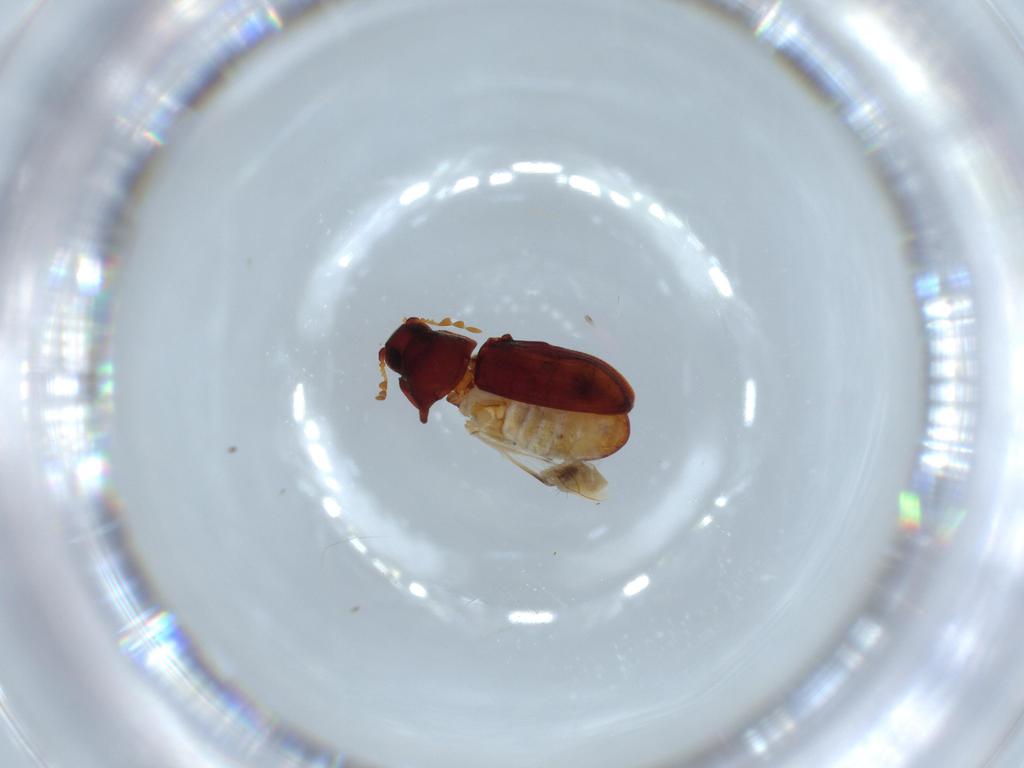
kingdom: Animalia
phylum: Arthropoda
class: Insecta
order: Coleoptera
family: Ptinidae
